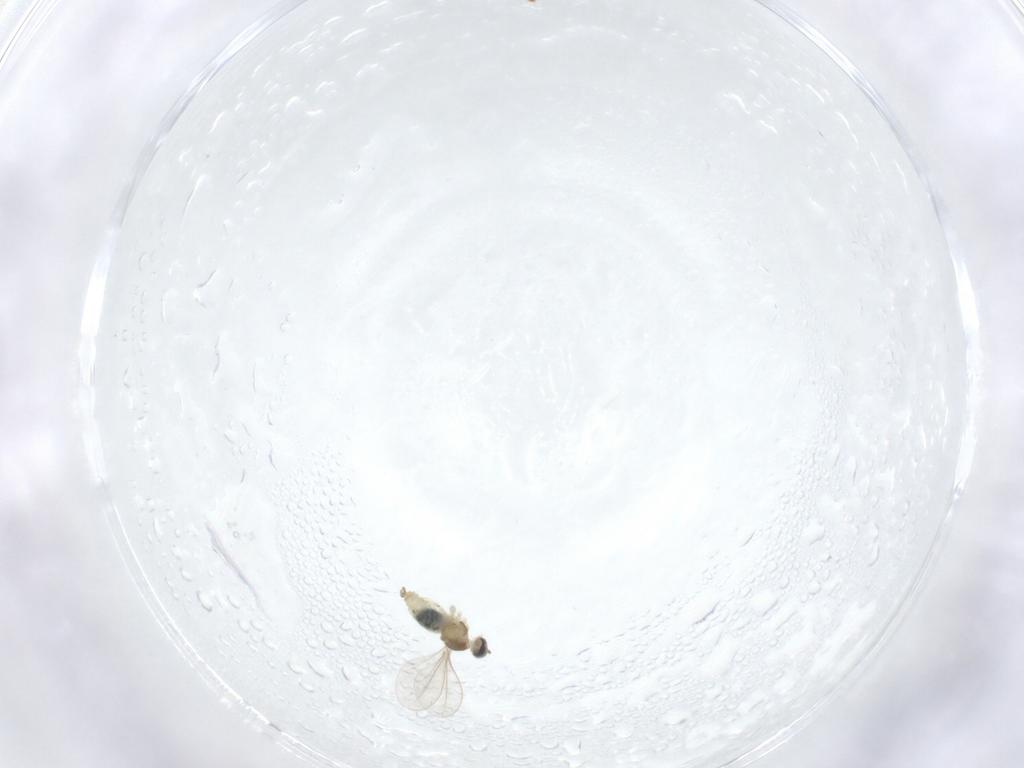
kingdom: Animalia
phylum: Arthropoda
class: Insecta
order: Diptera
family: Cecidomyiidae
